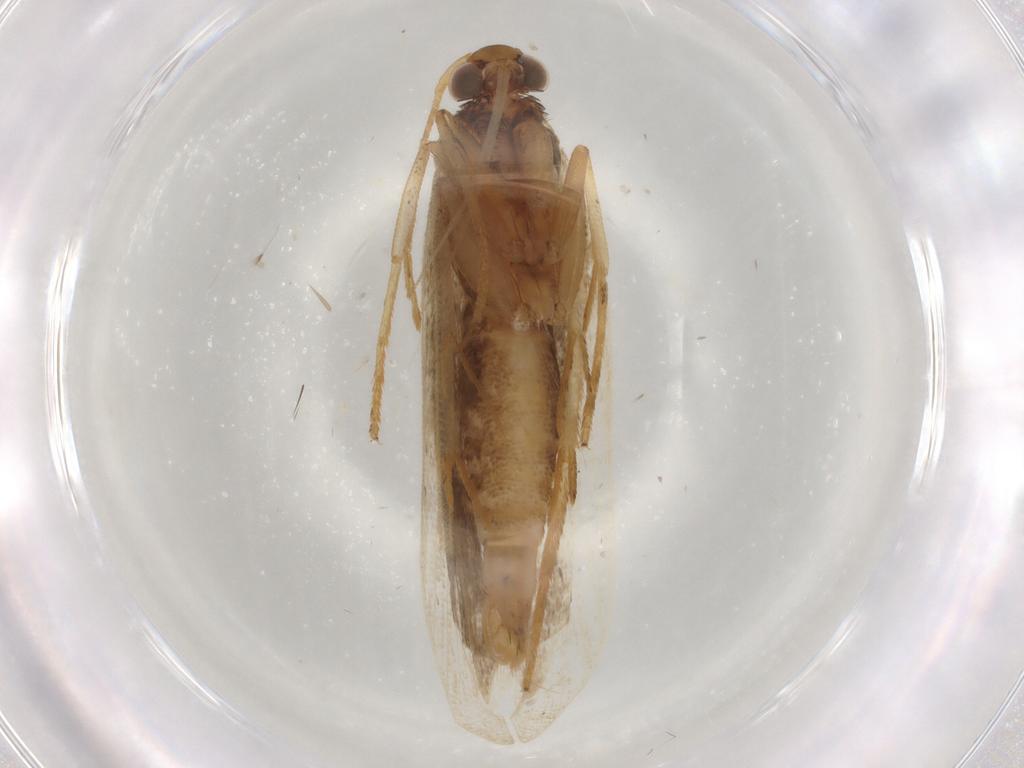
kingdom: Animalia
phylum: Arthropoda
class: Insecta
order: Lepidoptera
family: Gelechiidae
